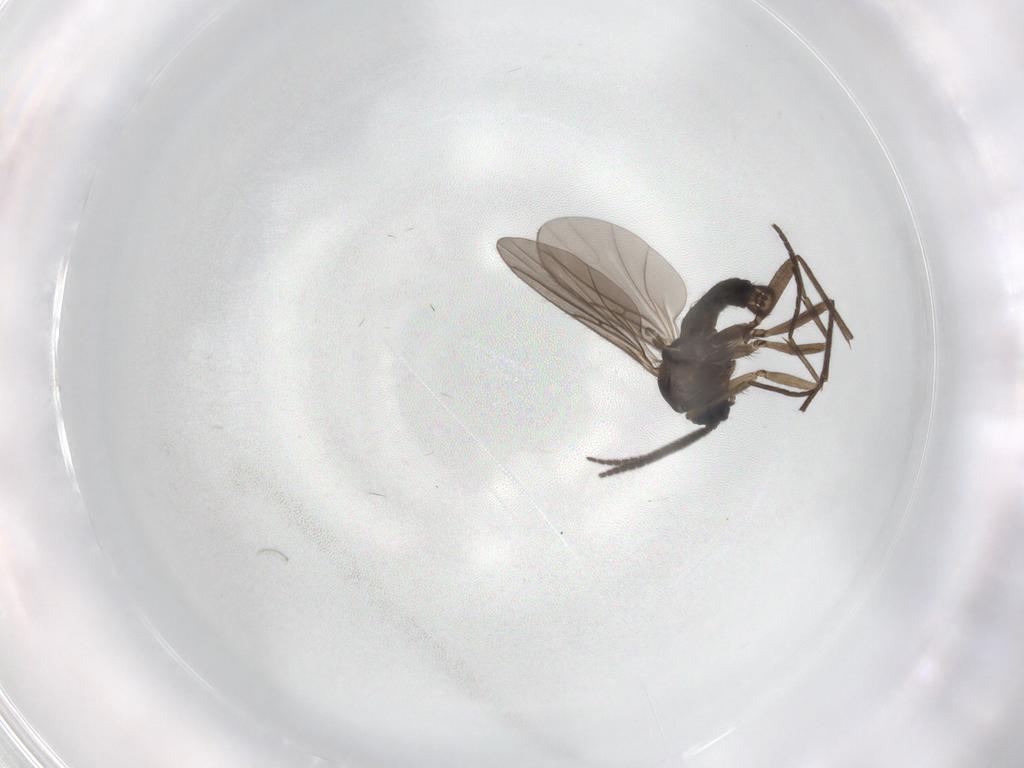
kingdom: Animalia
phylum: Arthropoda
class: Insecta
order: Diptera
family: Sciaridae
